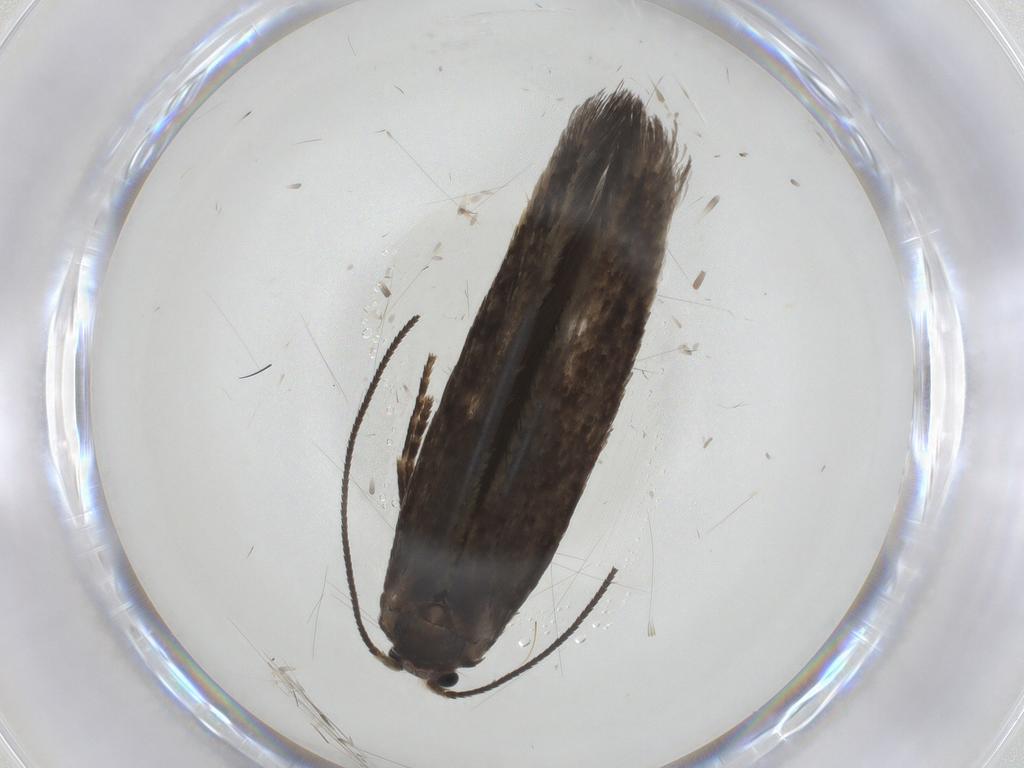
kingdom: Animalia
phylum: Arthropoda
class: Insecta
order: Lepidoptera
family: Nepticulidae
